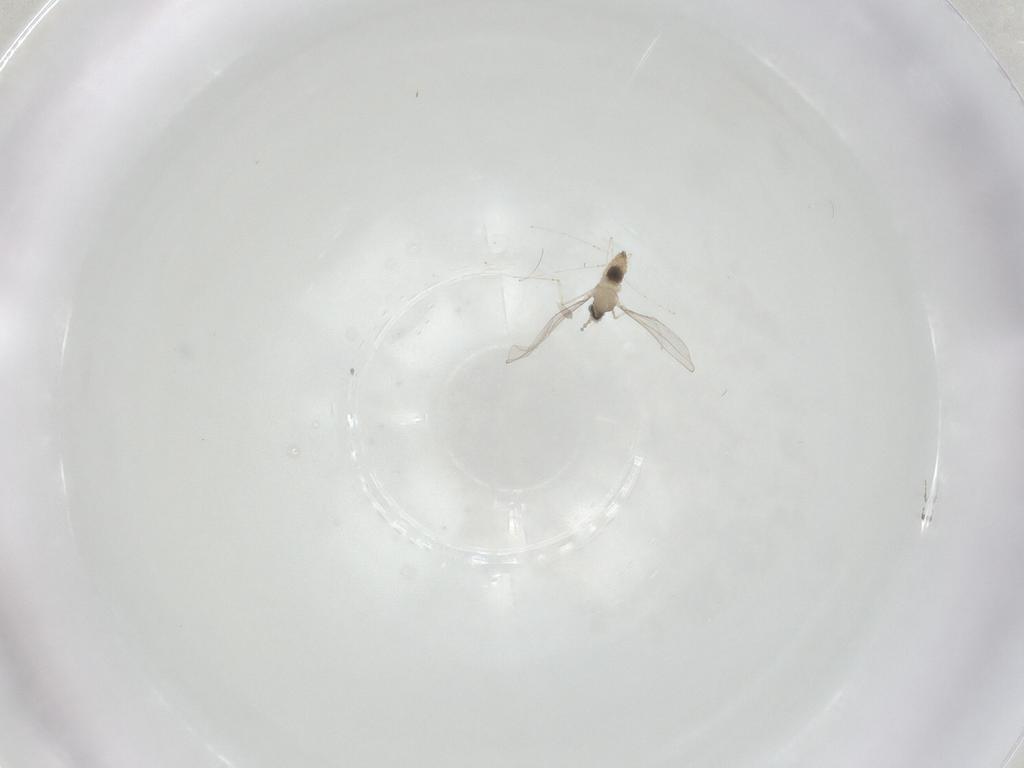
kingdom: Animalia
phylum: Arthropoda
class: Insecta
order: Diptera
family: Cecidomyiidae
